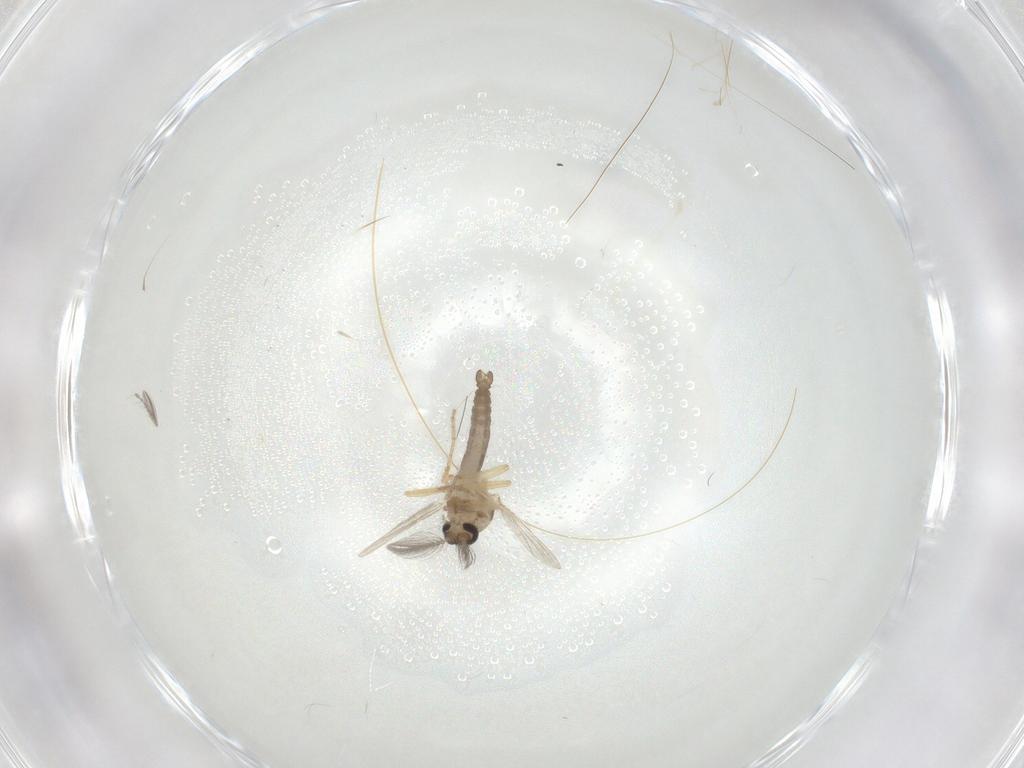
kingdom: Animalia
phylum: Arthropoda
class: Insecta
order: Diptera
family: Ceratopogonidae
